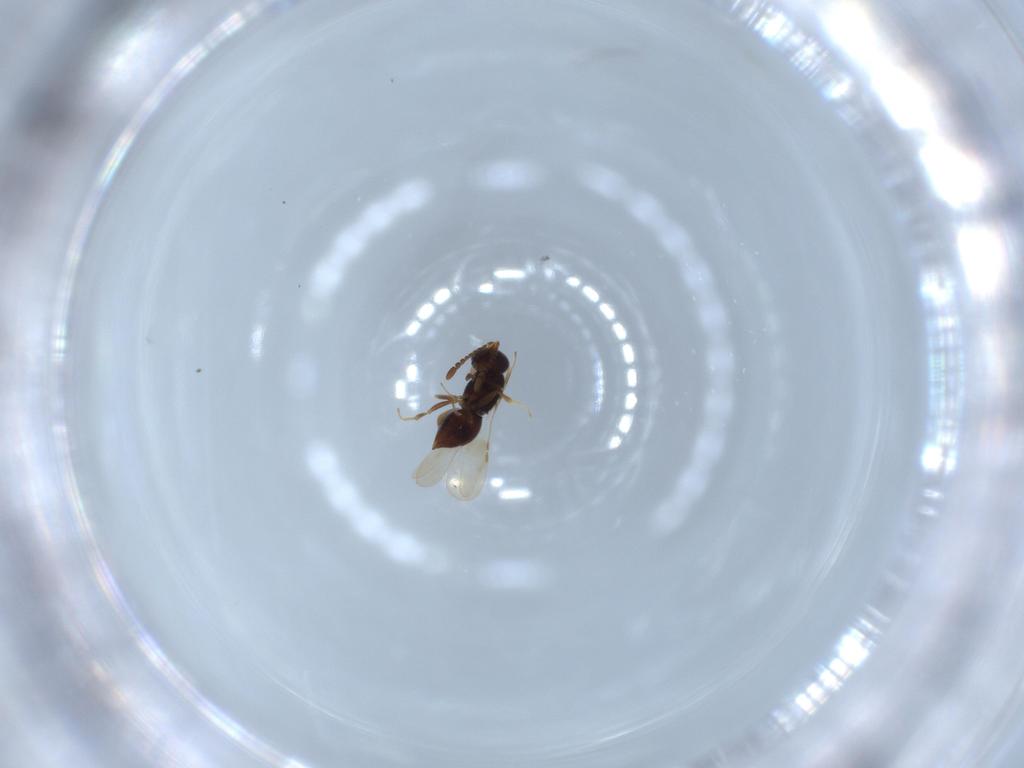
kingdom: Animalia
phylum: Arthropoda
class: Insecta
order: Hymenoptera
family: Ceraphronidae
